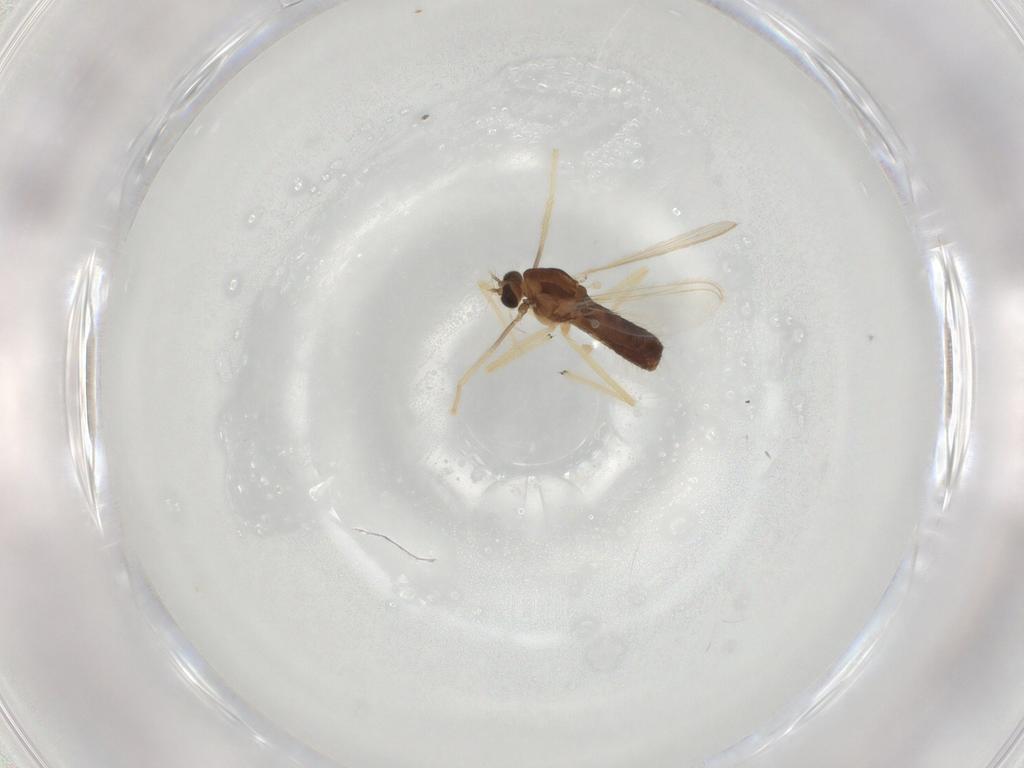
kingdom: Animalia
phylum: Arthropoda
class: Insecta
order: Diptera
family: Chironomidae
